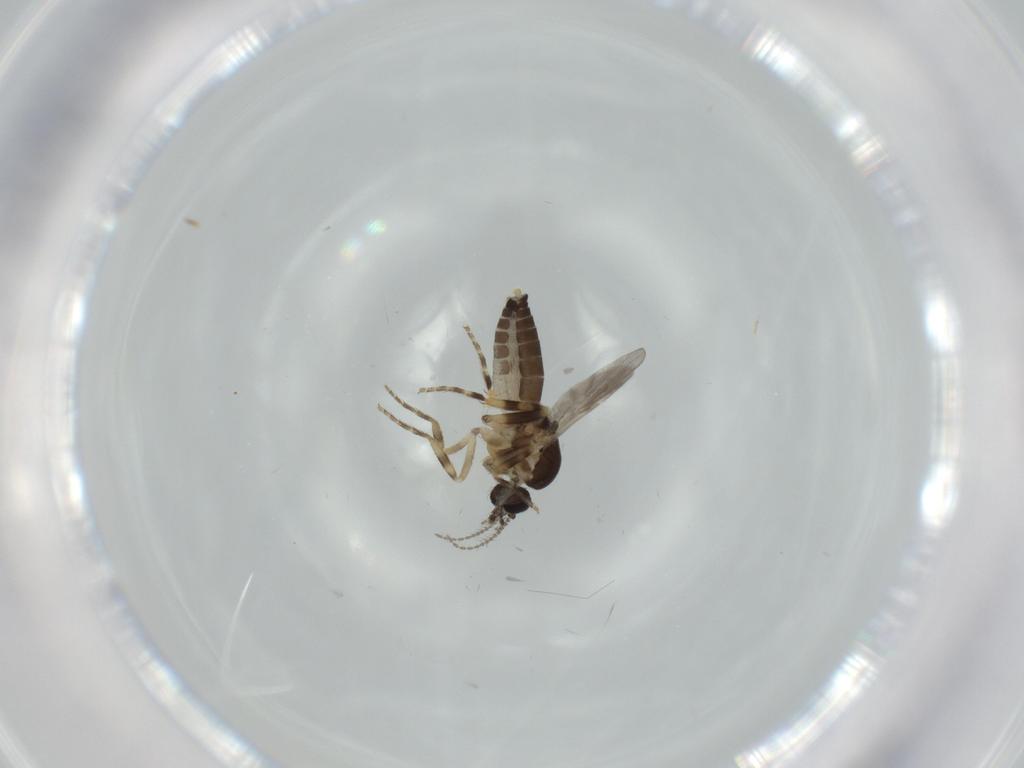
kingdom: Animalia
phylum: Arthropoda
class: Insecta
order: Diptera
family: Ceratopogonidae
